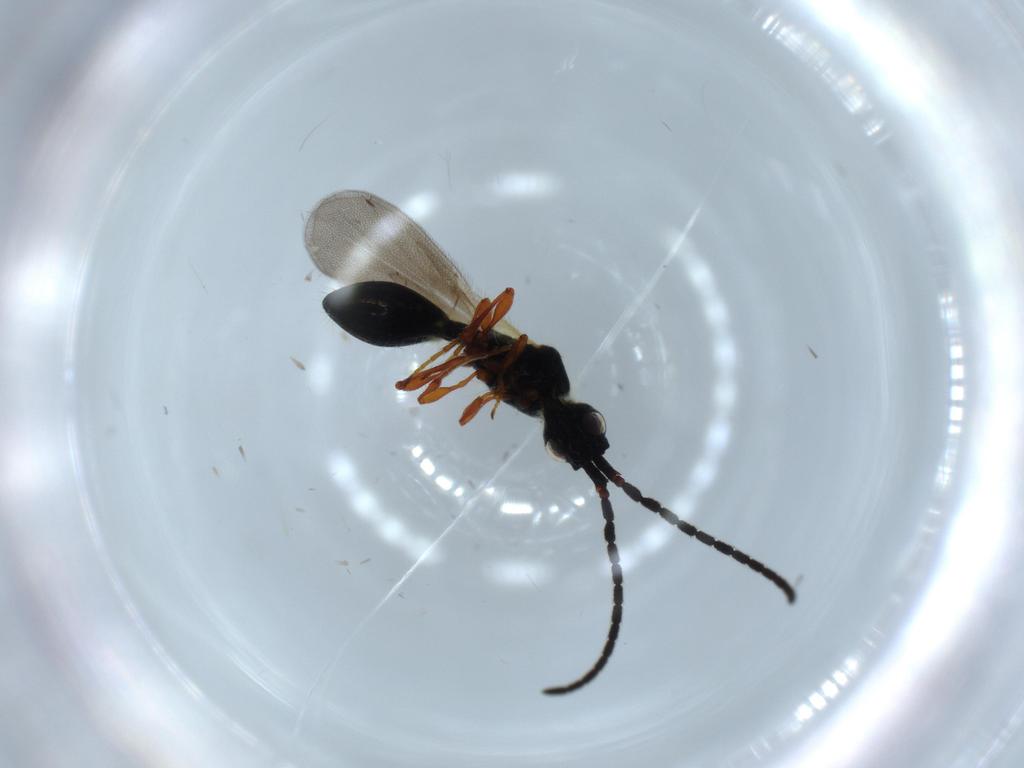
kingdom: Animalia
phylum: Arthropoda
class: Insecta
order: Hymenoptera
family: Diapriidae
